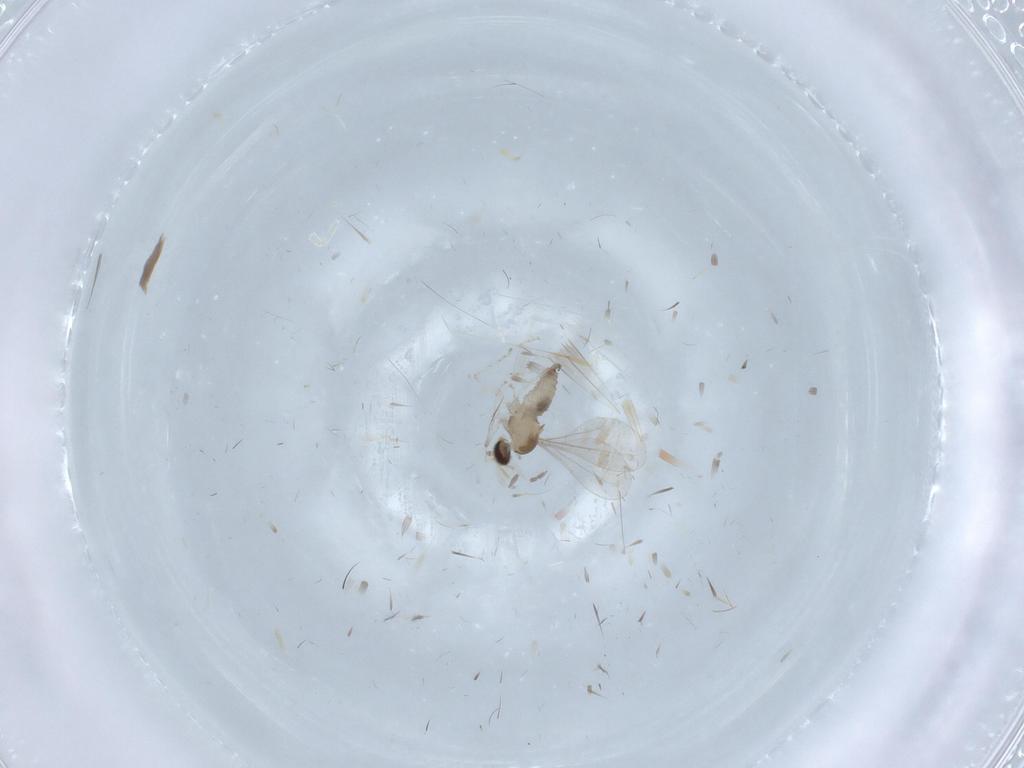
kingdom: Animalia
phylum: Arthropoda
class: Insecta
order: Diptera
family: Cecidomyiidae
